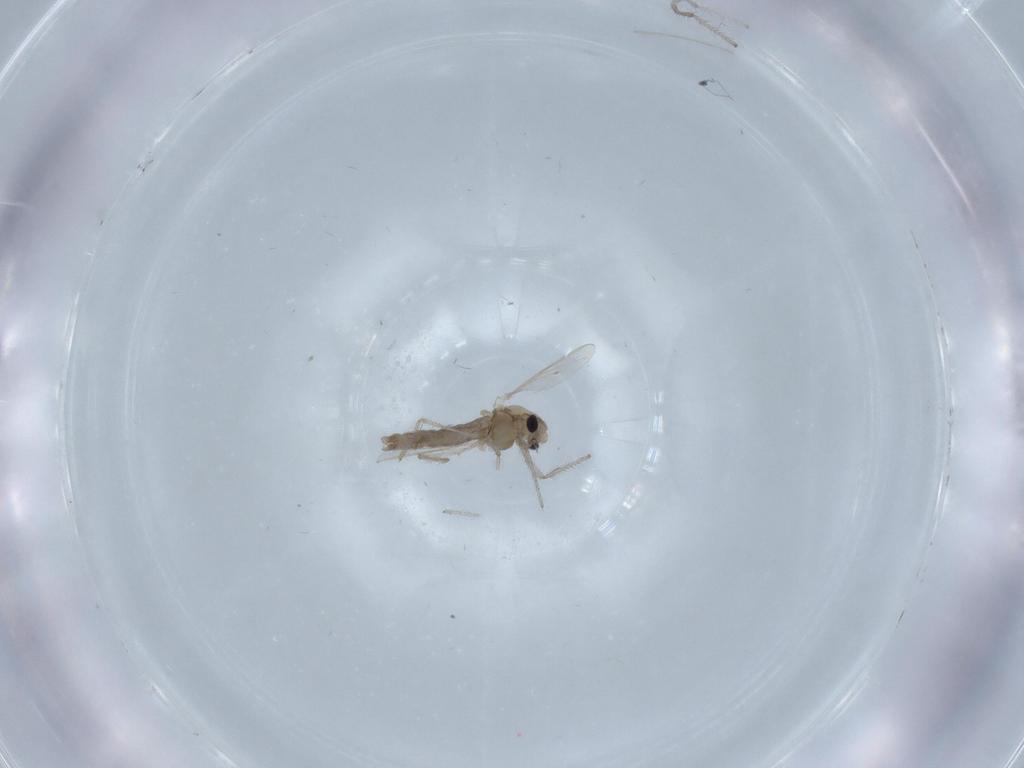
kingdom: Animalia
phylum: Arthropoda
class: Insecta
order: Diptera
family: Chironomidae
